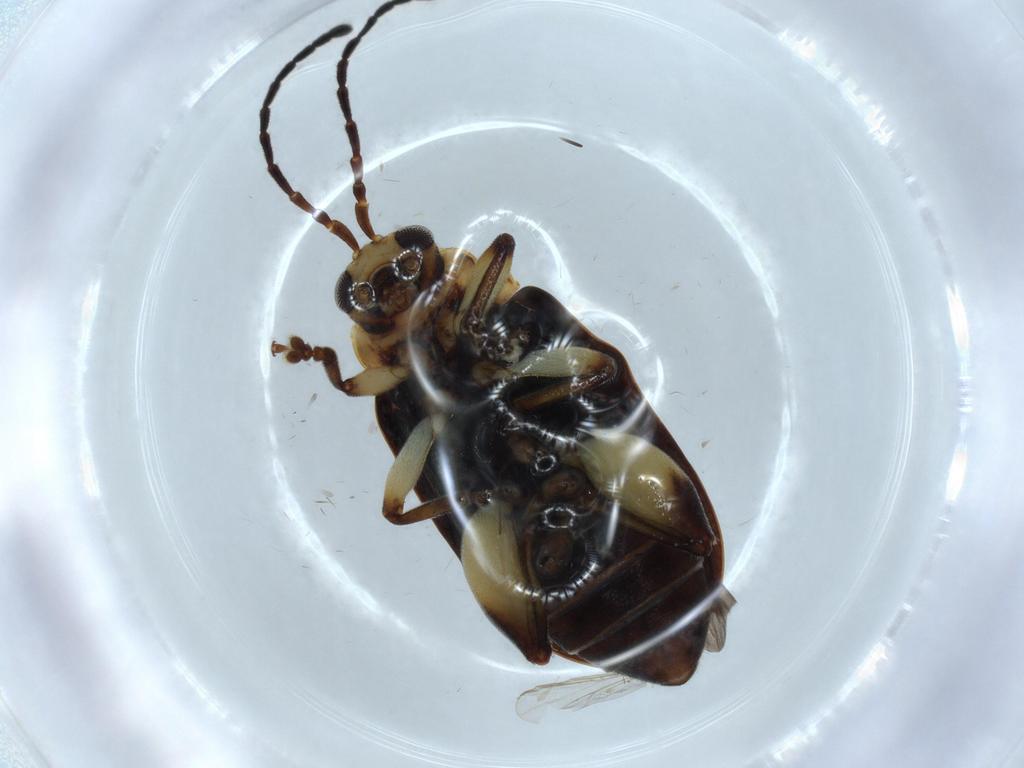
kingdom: Animalia
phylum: Arthropoda
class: Insecta
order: Coleoptera
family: Chrysomelidae
